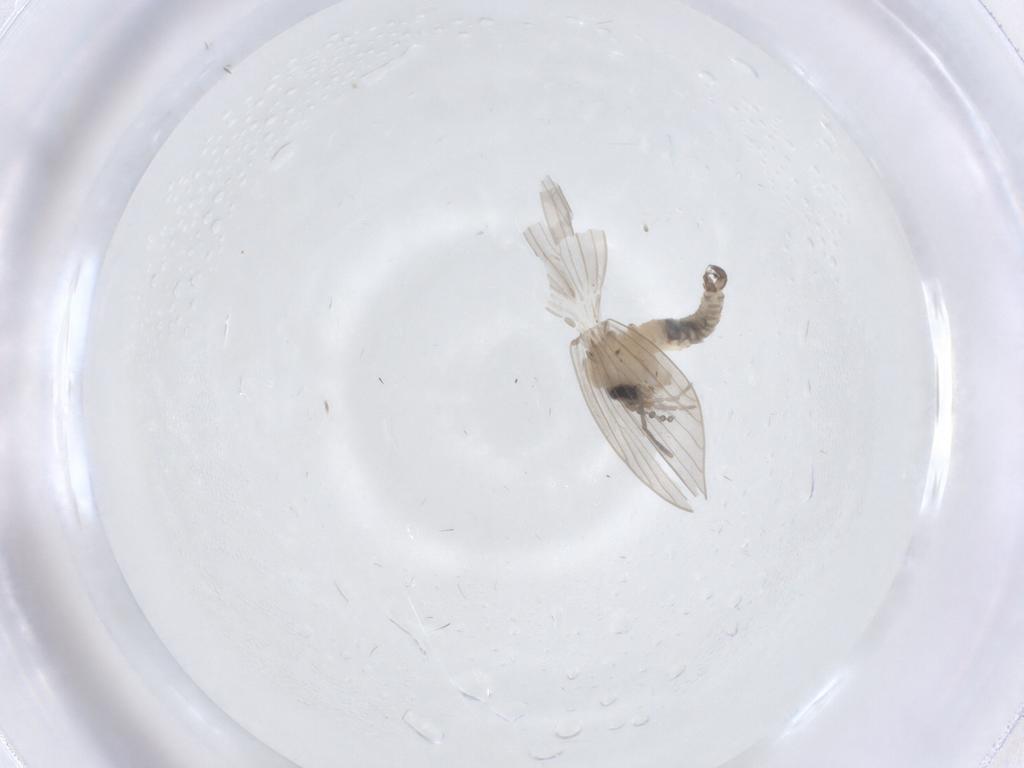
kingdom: Animalia
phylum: Arthropoda
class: Insecta
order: Diptera
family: Psychodidae
